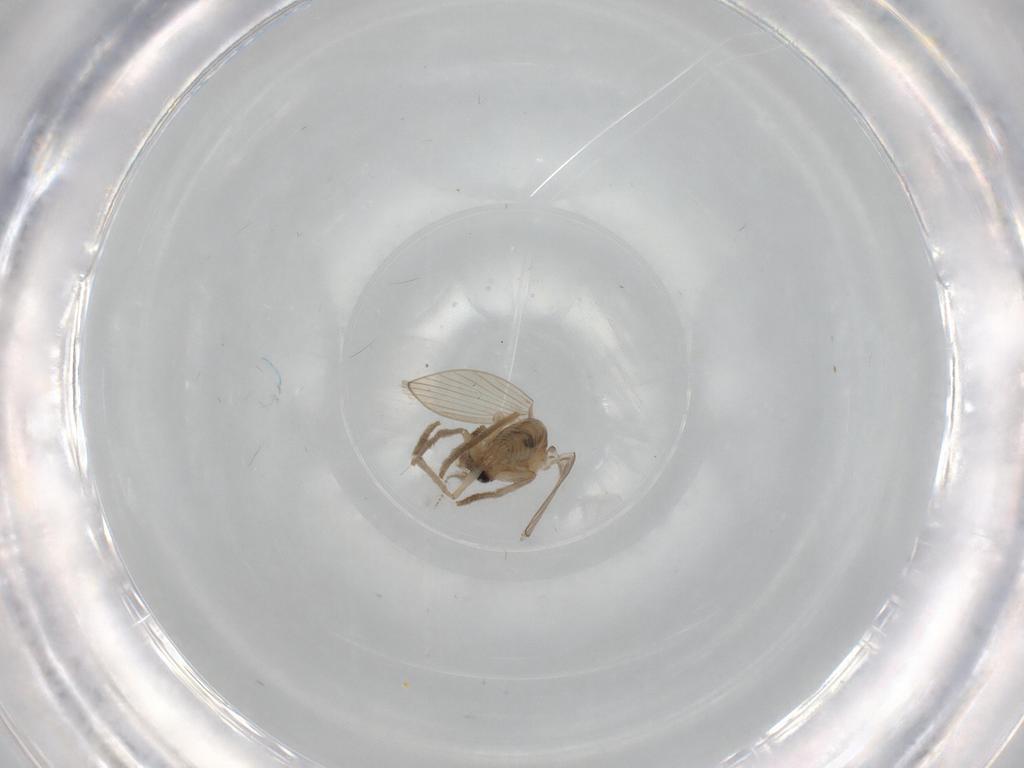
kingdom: Animalia
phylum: Arthropoda
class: Insecta
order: Diptera
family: Psychodidae
